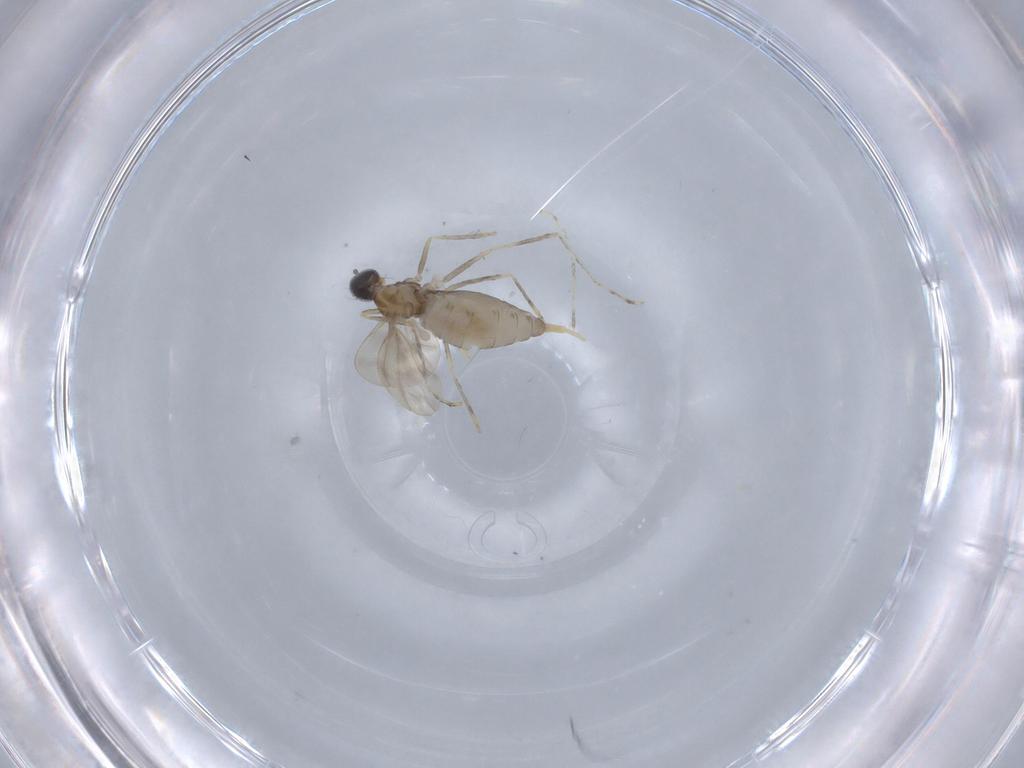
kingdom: Animalia
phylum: Arthropoda
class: Insecta
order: Diptera
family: Cecidomyiidae
